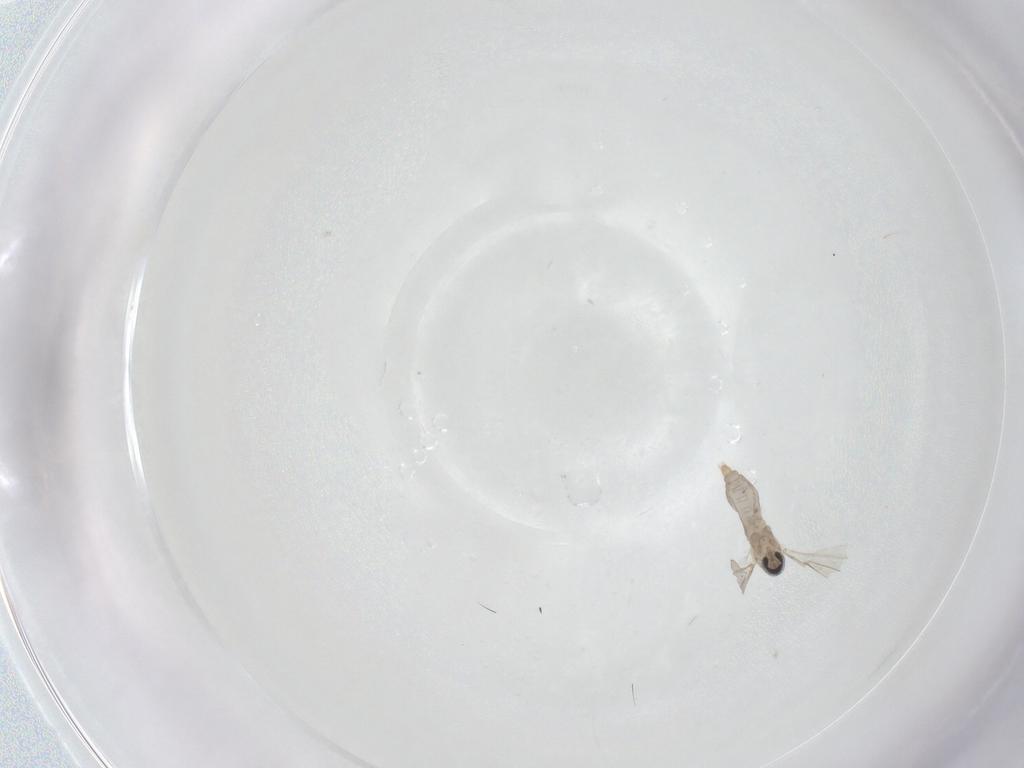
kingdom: Animalia
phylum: Arthropoda
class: Insecta
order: Diptera
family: Cecidomyiidae
